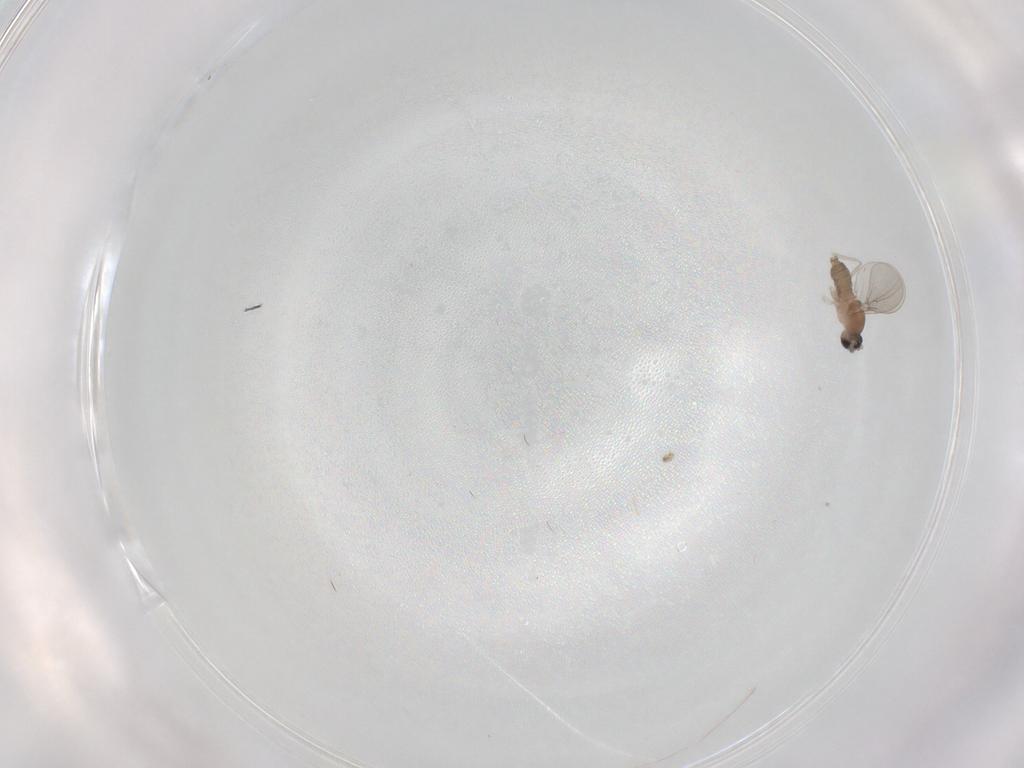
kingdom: Animalia
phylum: Arthropoda
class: Insecta
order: Diptera
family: Cecidomyiidae
